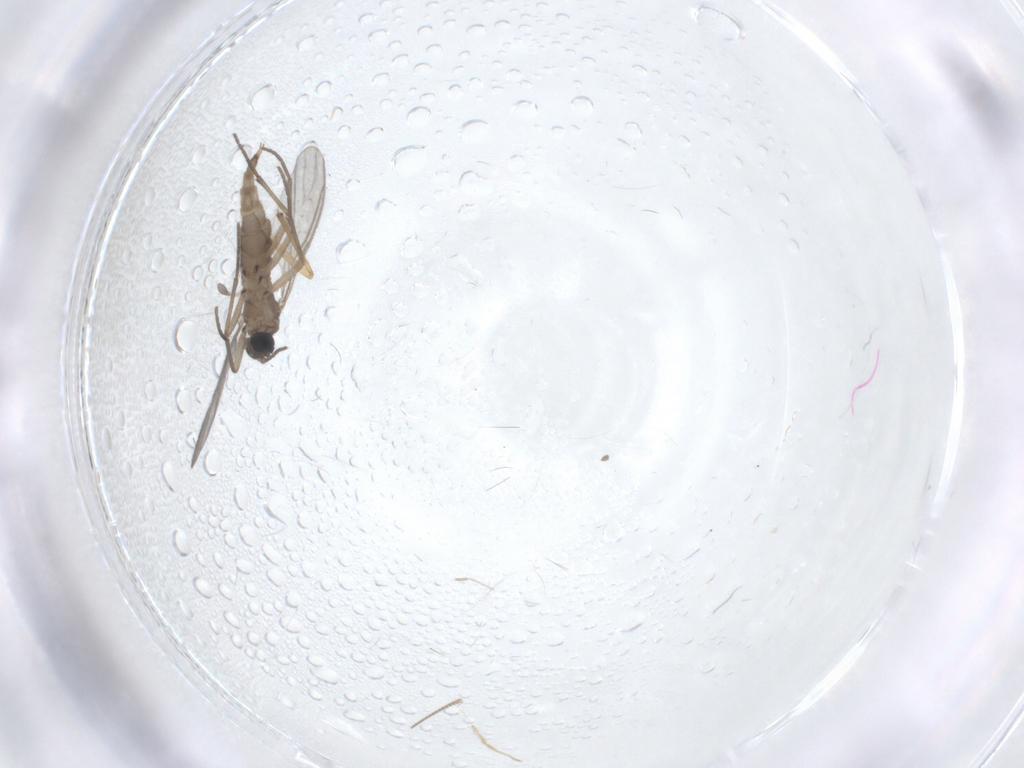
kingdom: Animalia
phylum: Arthropoda
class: Insecta
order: Diptera
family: Sciaridae
